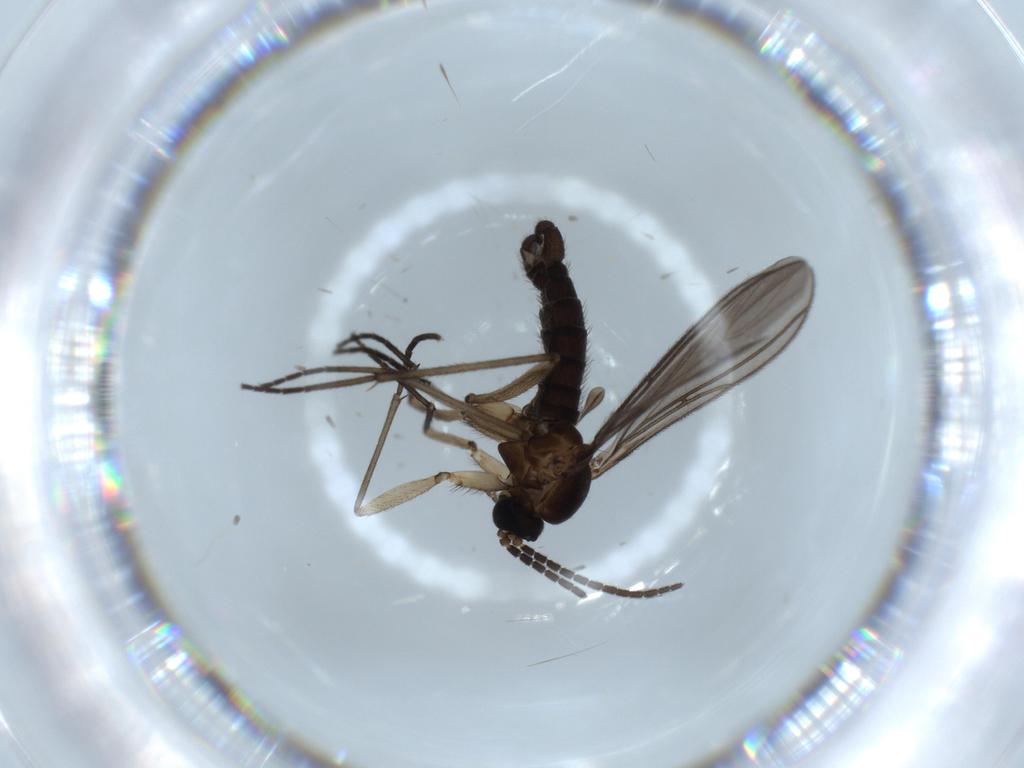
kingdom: Animalia
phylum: Arthropoda
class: Insecta
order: Diptera
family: Sciaridae
